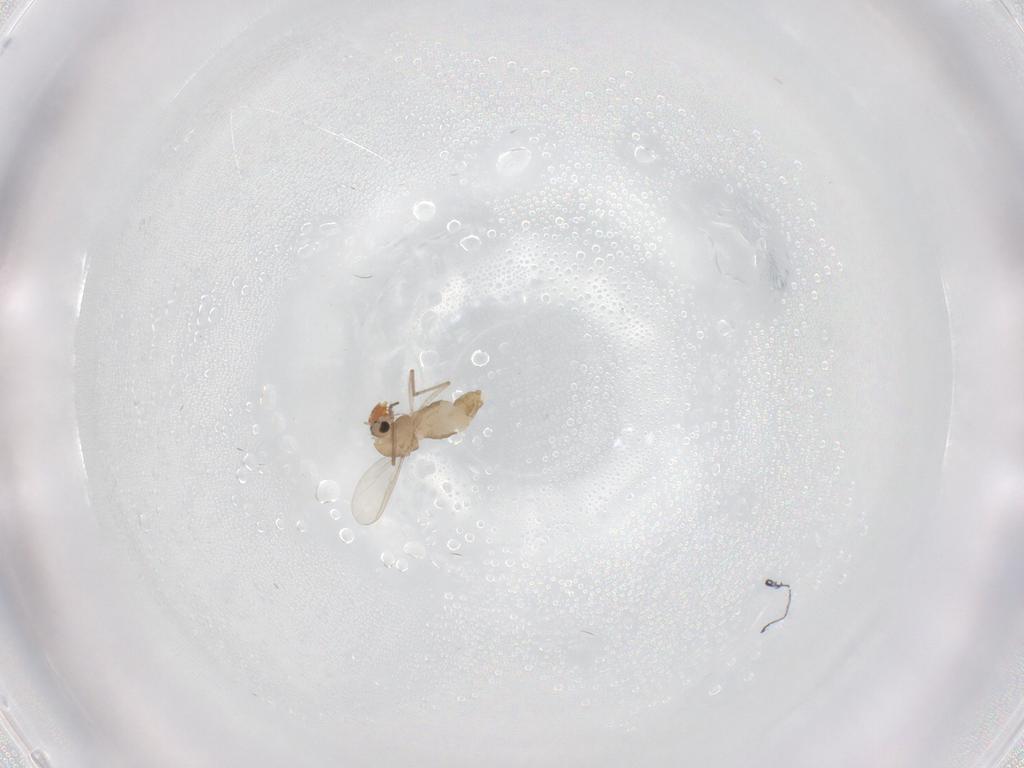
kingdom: Animalia
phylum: Arthropoda
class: Insecta
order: Diptera
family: Chironomidae
